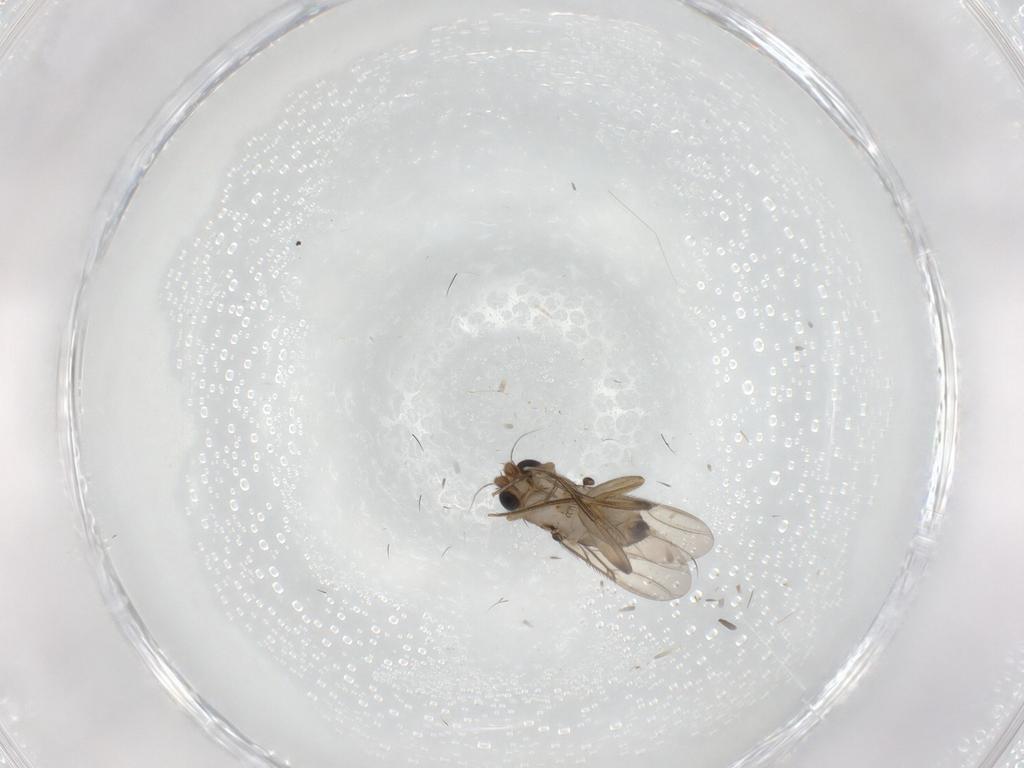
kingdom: Animalia
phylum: Arthropoda
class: Insecta
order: Diptera
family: Phoridae
